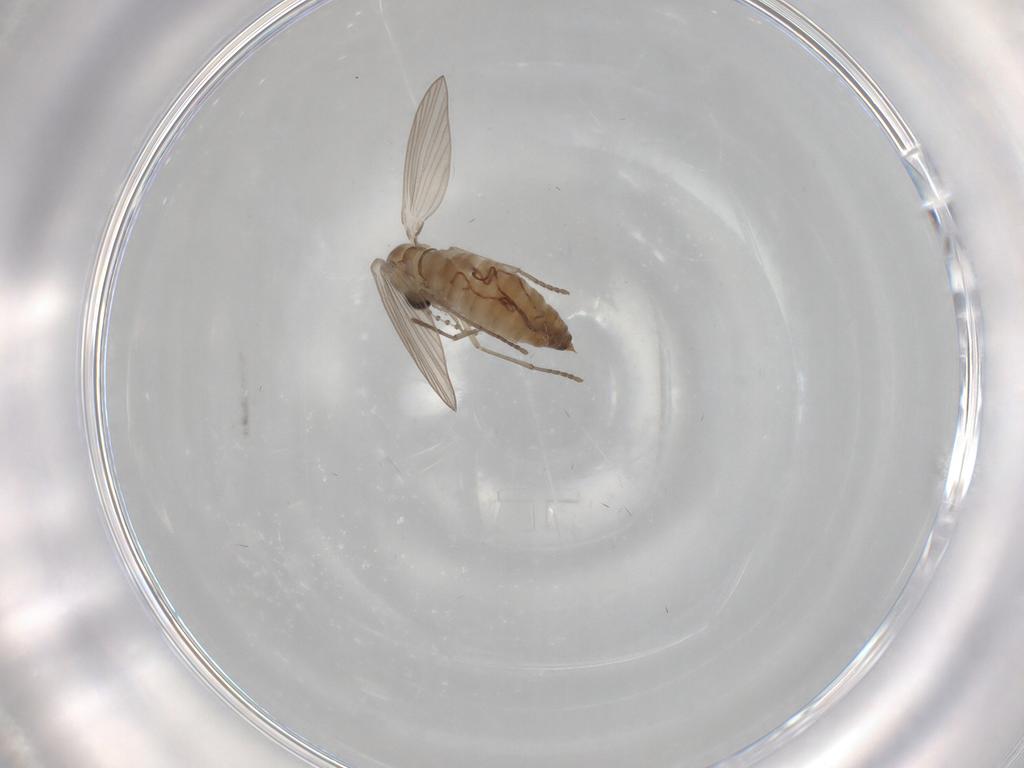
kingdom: Animalia
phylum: Arthropoda
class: Insecta
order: Diptera
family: Psychodidae
